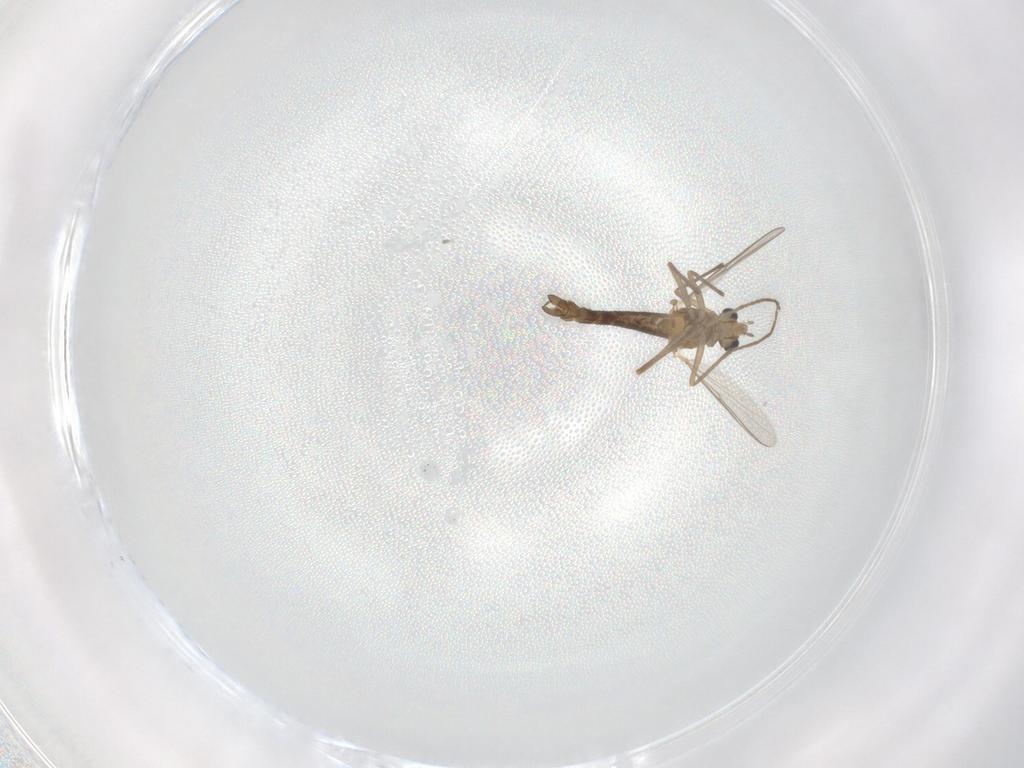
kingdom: Animalia
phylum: Arthropoda
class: Insecta
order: Diptera
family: Chironomidae
